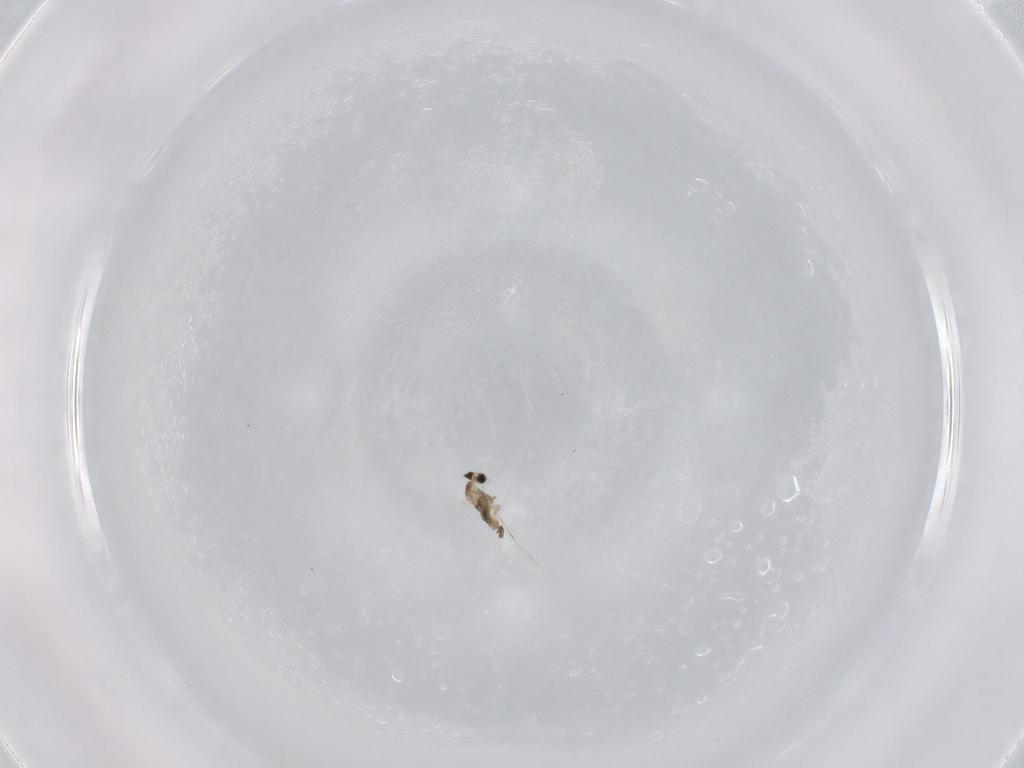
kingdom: Animalia
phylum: Arthropoda
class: Insecta
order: Diptera
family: Cecidomyiidae
